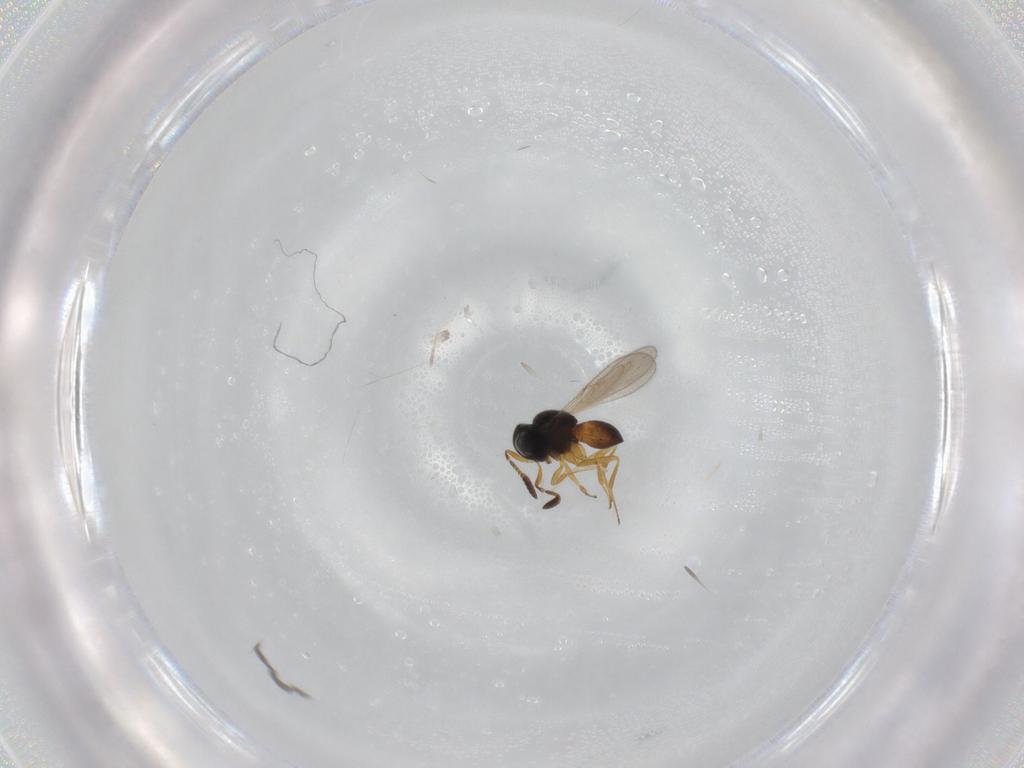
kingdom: Animalia
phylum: Arthropoda
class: Insecta
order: Hymenoptera
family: Scelionidae
